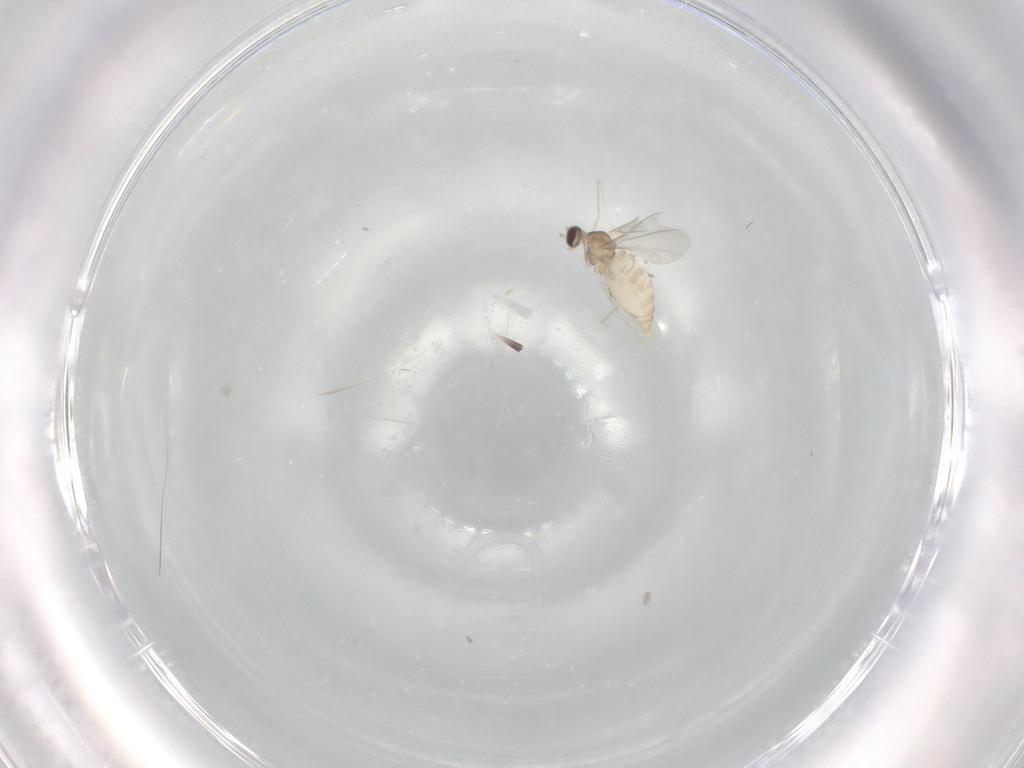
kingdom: Animalia
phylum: Arthropoda
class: Insecta
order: Diptera
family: Cecidomyiidae
